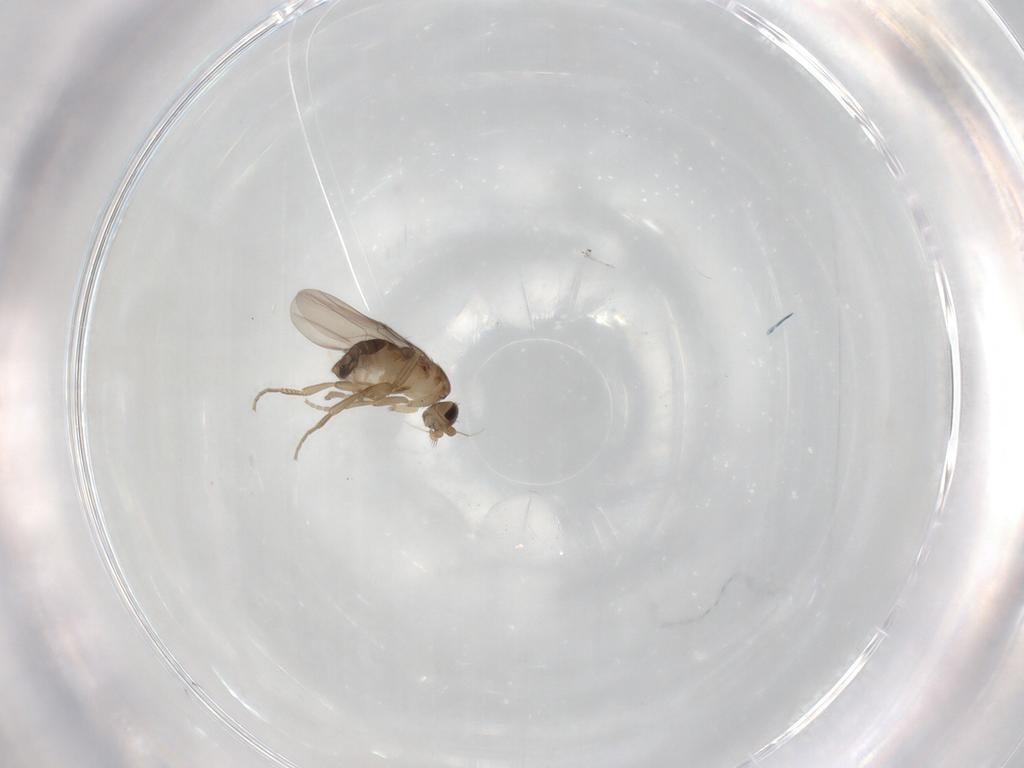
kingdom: Animalia
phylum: Arthropoda
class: Insecta
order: Diptera
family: Phoridae
